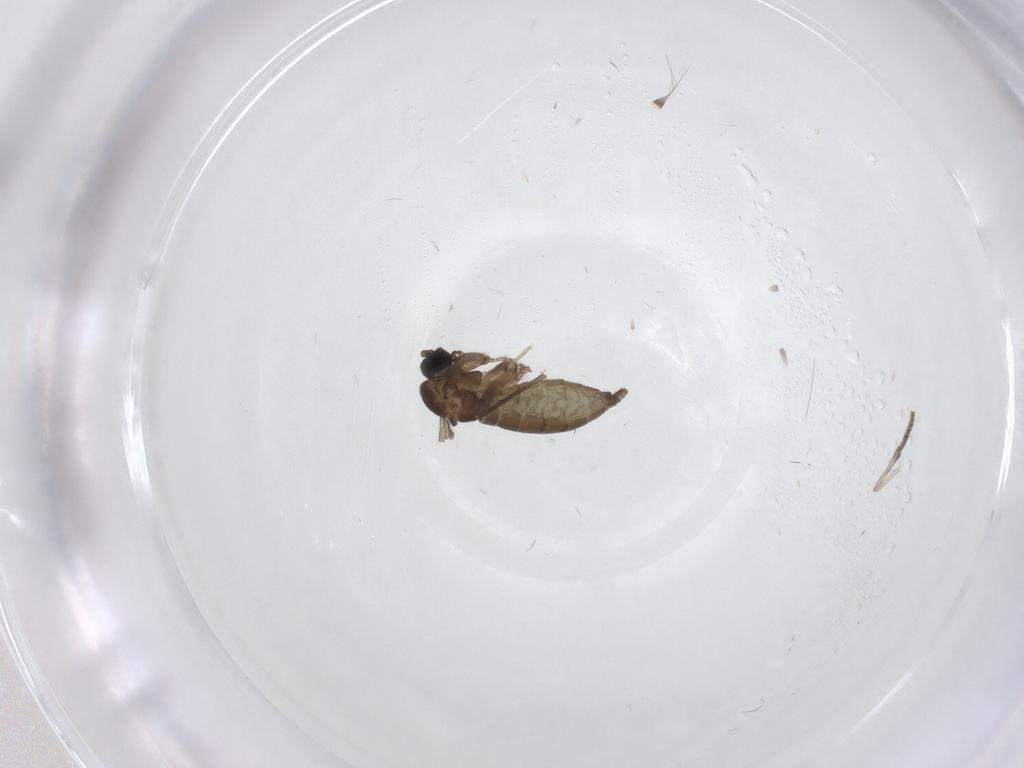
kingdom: Animalia
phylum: Arthropoda
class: Insecta
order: Diptera
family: Sciaridae
